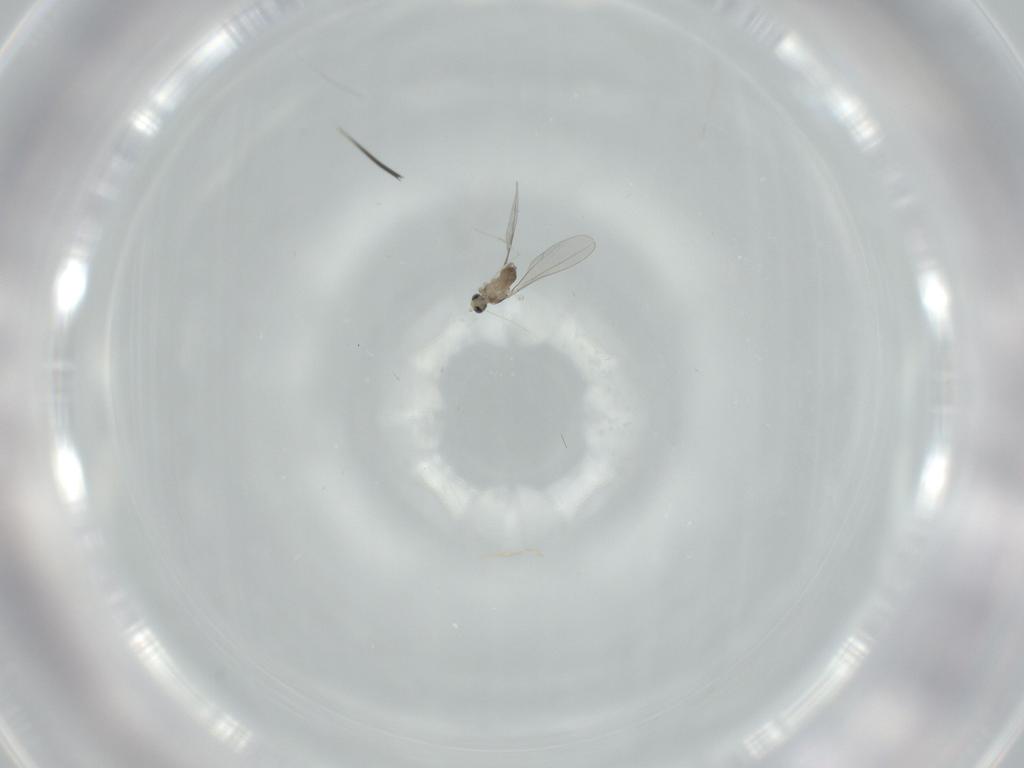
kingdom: Animalia
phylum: Arthropoda
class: Insecta
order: Diptera
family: Cecidomyiidae
